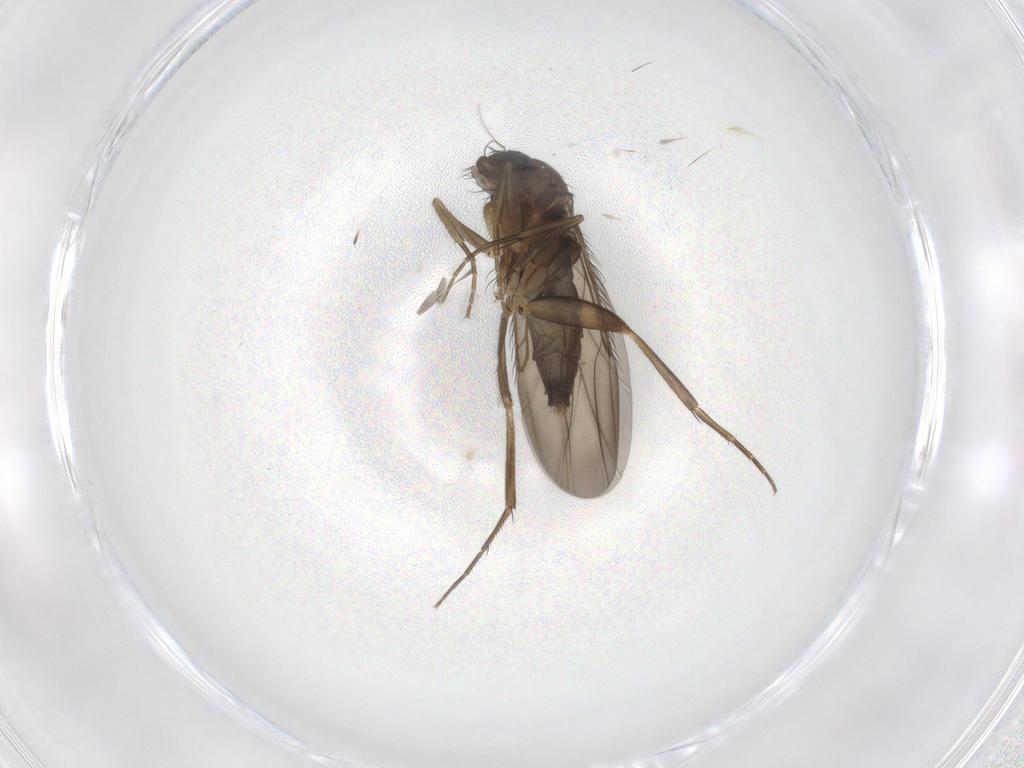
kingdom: Animalia
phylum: Arthropoda
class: Insecta
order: Diptera
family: Phoridae
